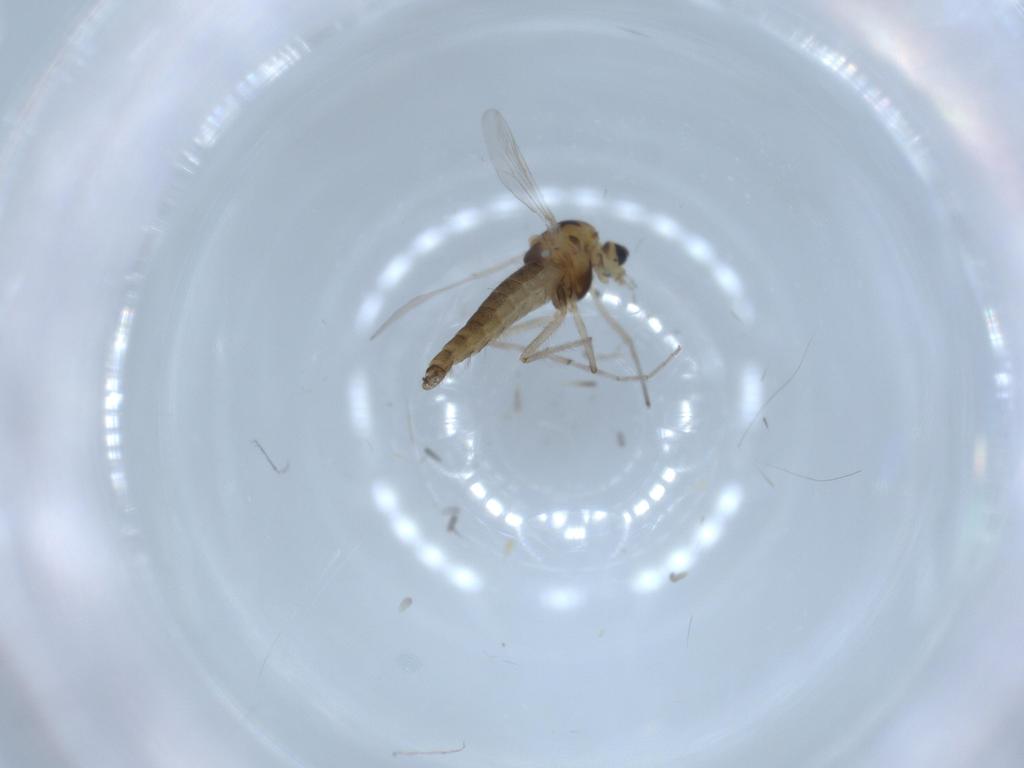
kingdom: Animalia
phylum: Arthropoda
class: Insecta
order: Diptera
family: Chironomidae
